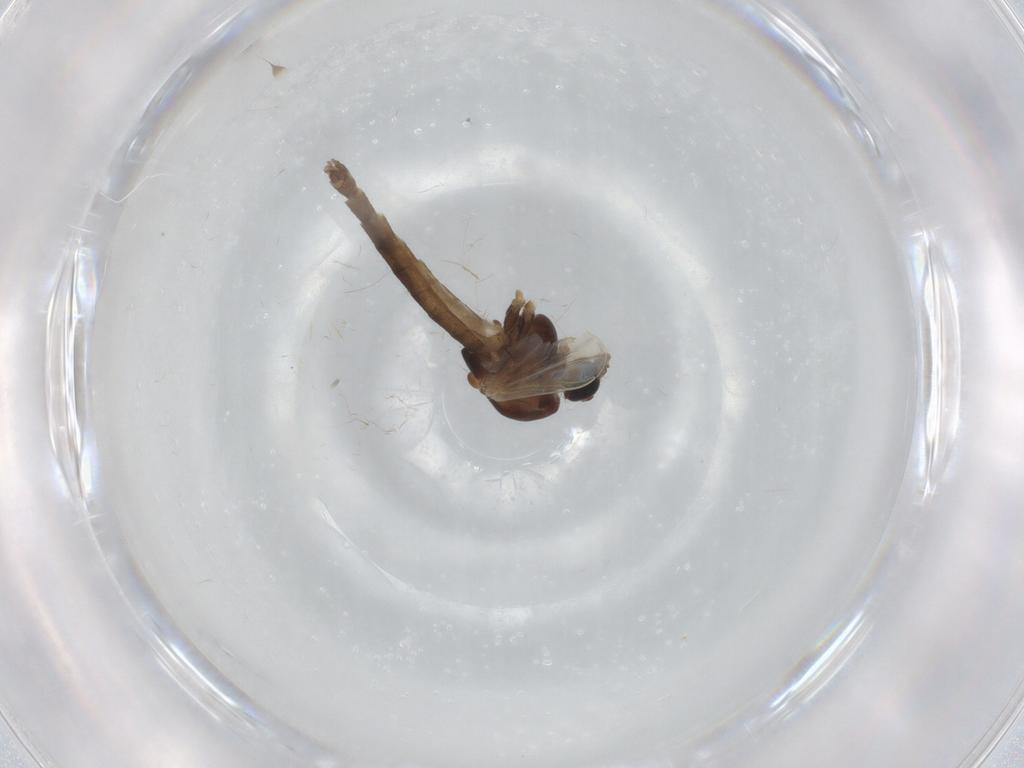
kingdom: Animalia
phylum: Arthropoda
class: Insecta
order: Diptera
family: Chironomidae
